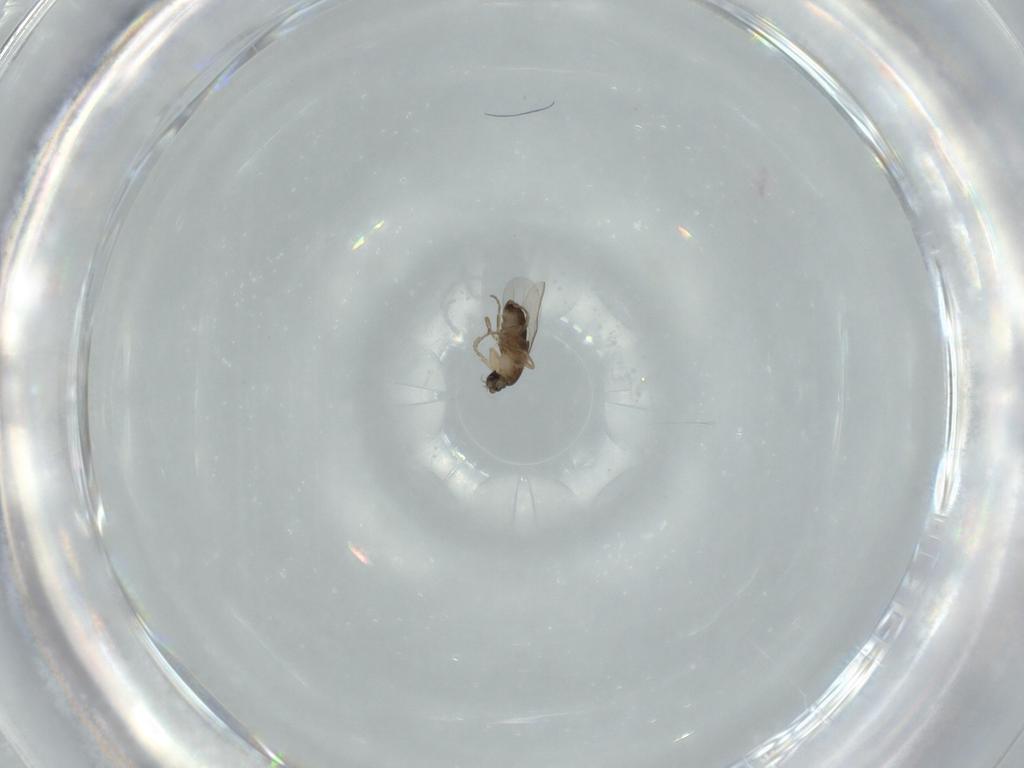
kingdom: Animalia
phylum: Arthropoda
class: Insecta
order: Diptera
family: Phoridae
